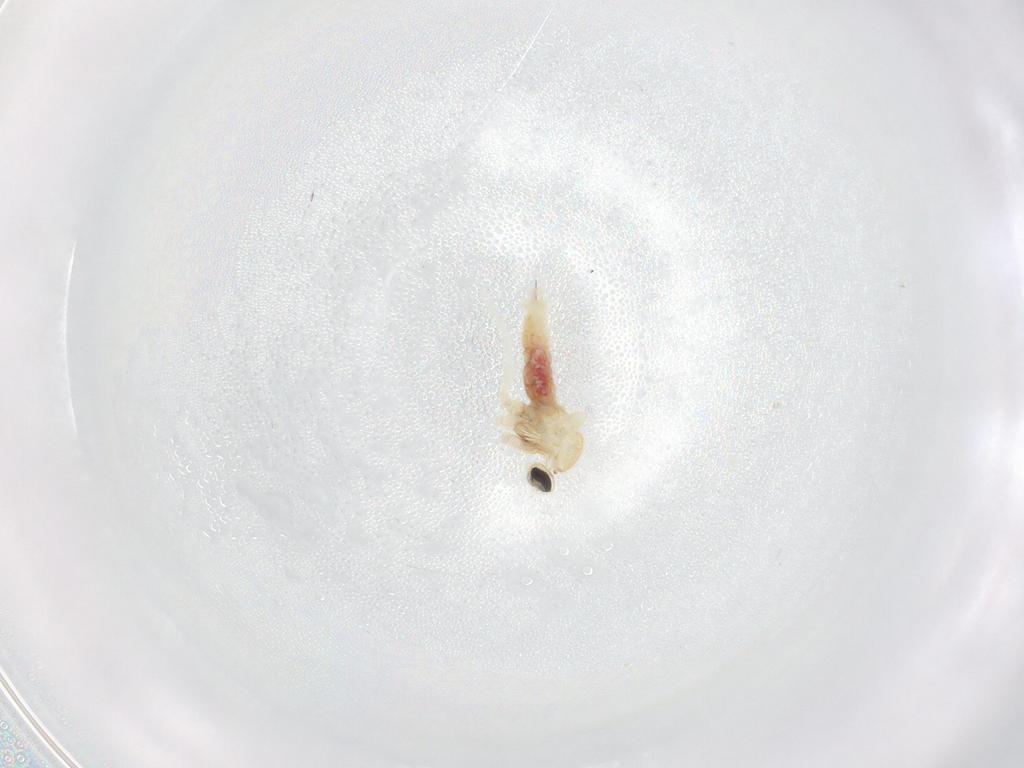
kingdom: Animalia
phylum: Arthropoda
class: Insecta
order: Diptera
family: Cecidomyiidae
